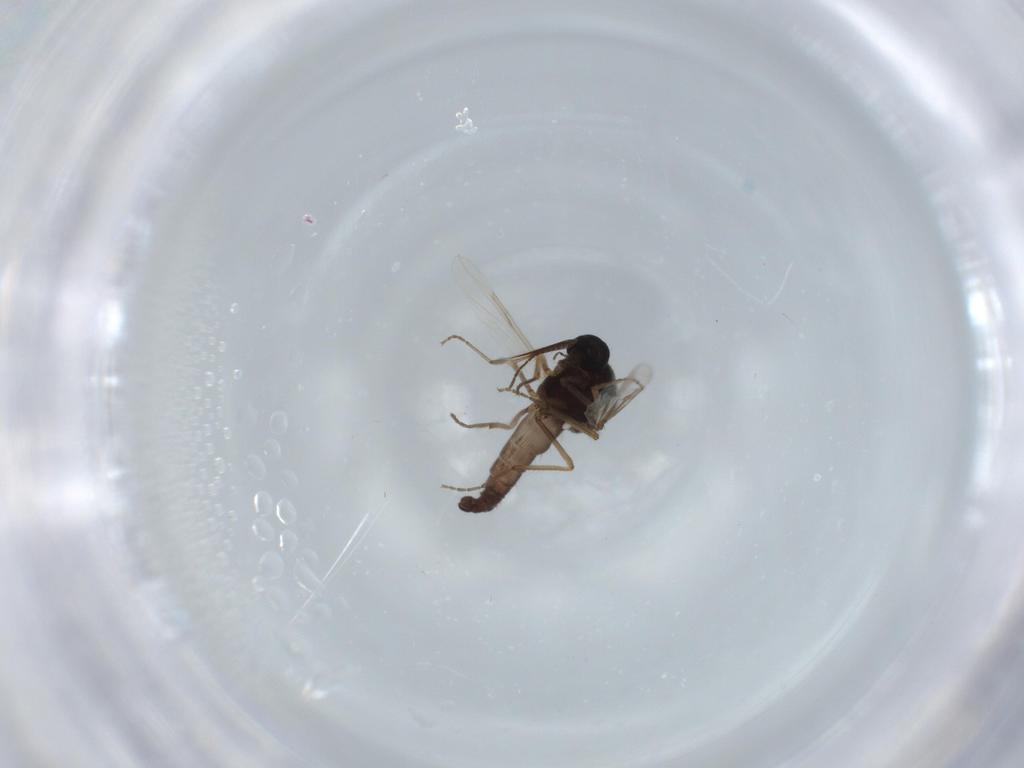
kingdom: Animalia
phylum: Arthropoda
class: Insecta
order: Diptera
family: Ceratopogonidae
